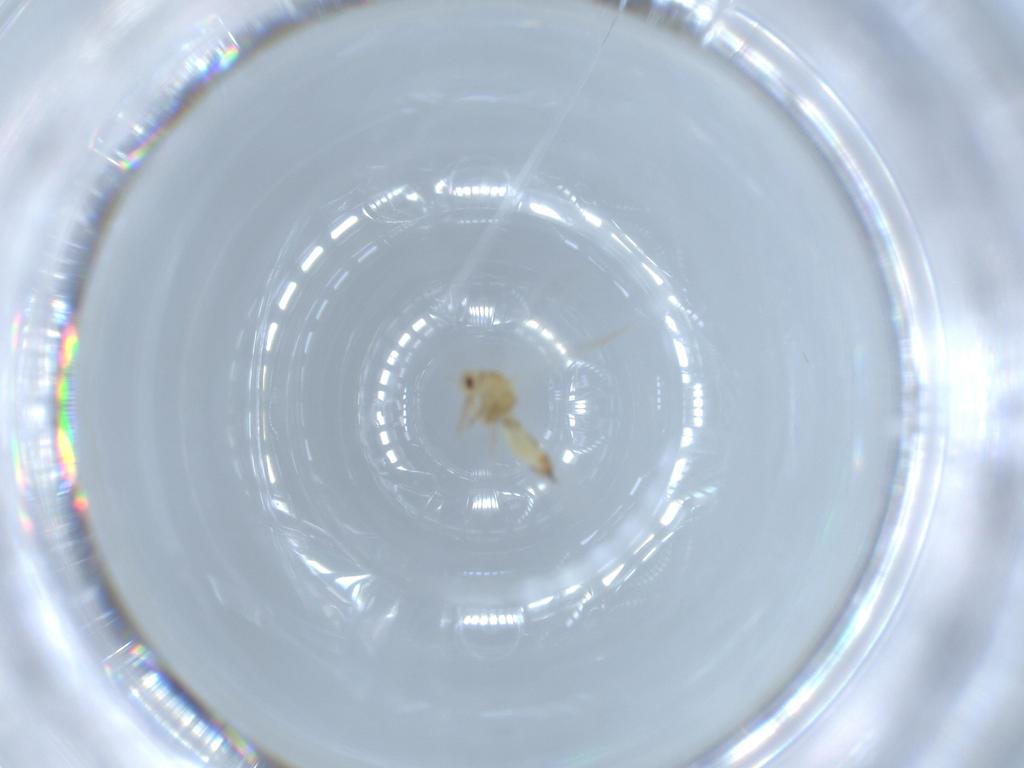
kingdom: Animalia
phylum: Arthropoda
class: Insecta
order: Hemiptera
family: Aleyrodidae
